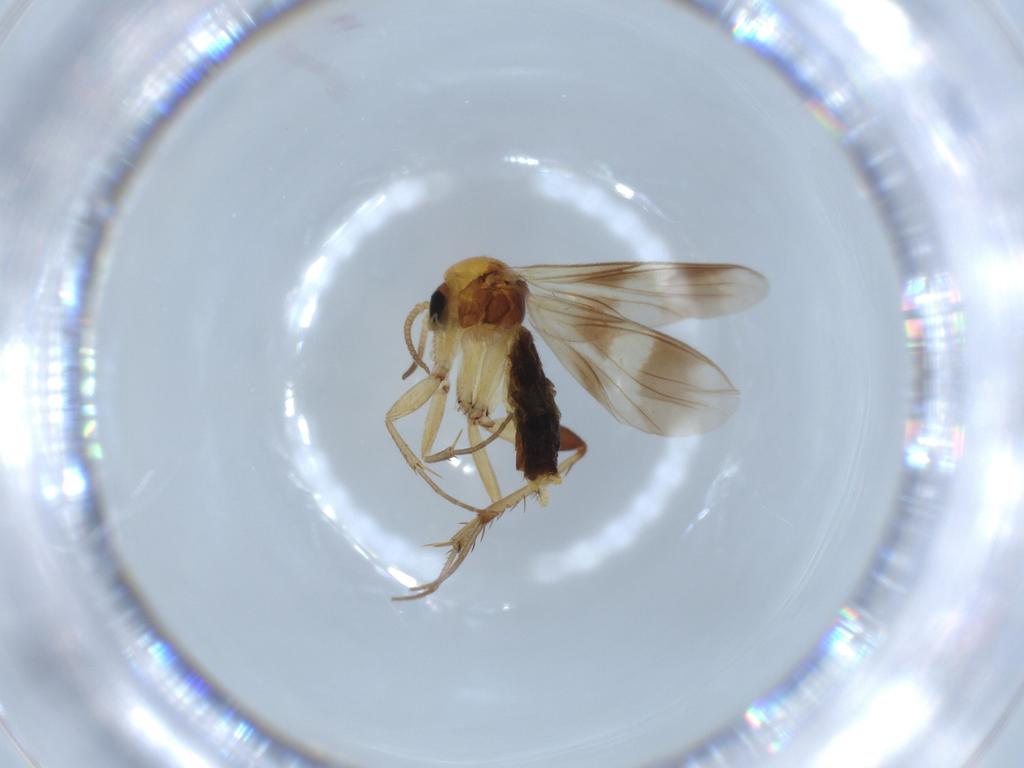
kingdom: Animalia
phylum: Arthropoda
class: Insecta
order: Diptera
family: Mycetophilidae
